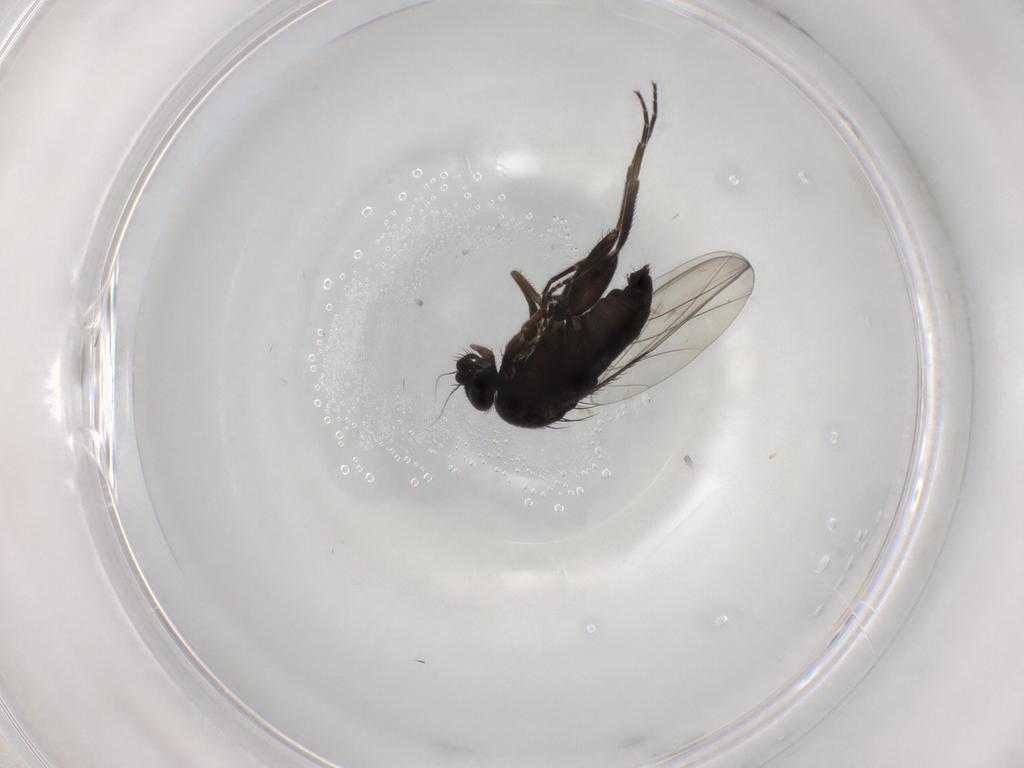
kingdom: Animalia
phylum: Arthropoda
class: Insecta
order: Diptera
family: Phoridae
